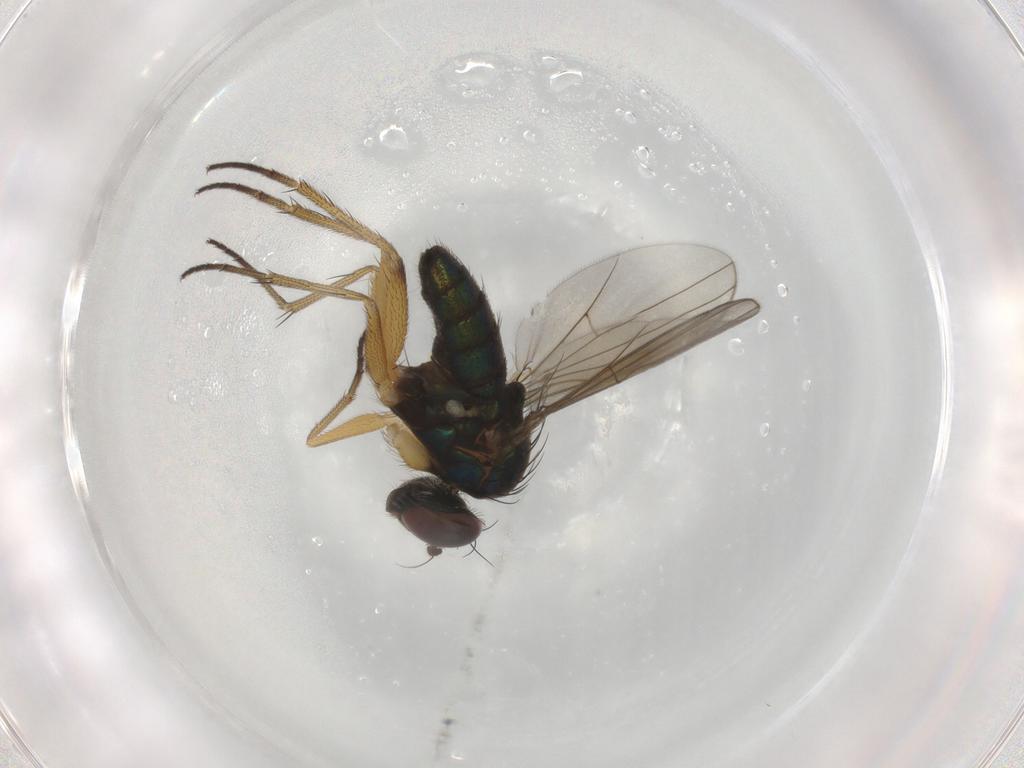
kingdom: Animalia
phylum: Arthropoda
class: Insecta
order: Diptera
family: Dolichopodidae
